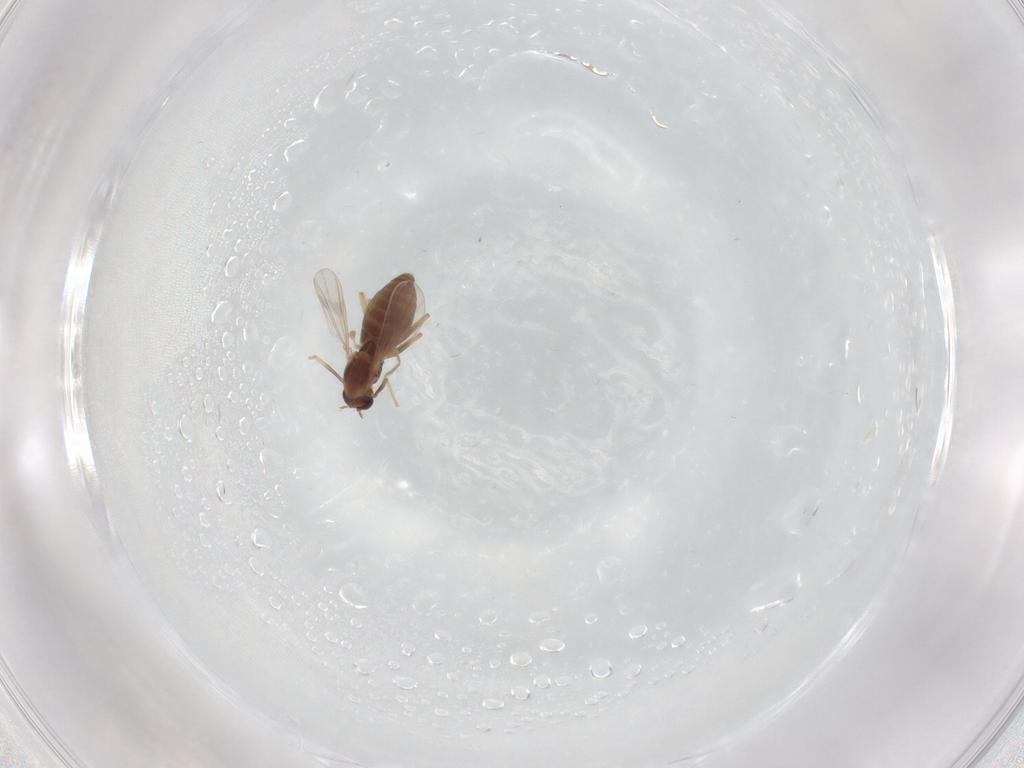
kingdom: Animalia
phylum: Arthropoda
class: Insecta
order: Diptera
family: Chironomidae
